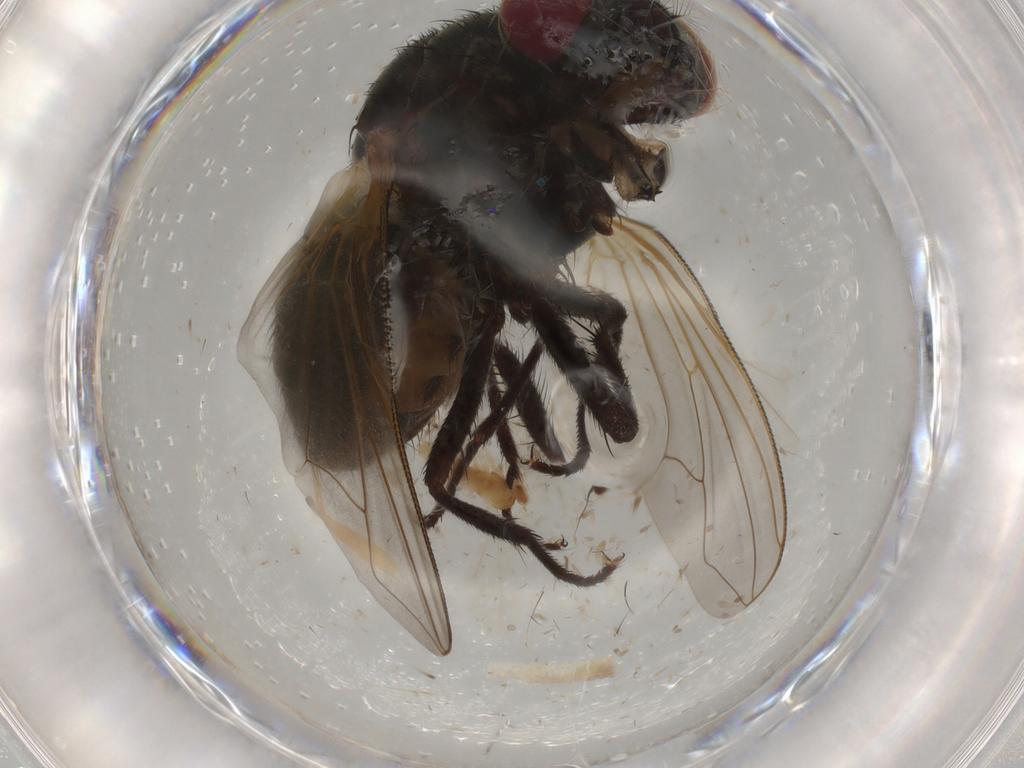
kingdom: Animalia
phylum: Arthropoda
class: Insecta
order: Diptera
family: Muscidae
